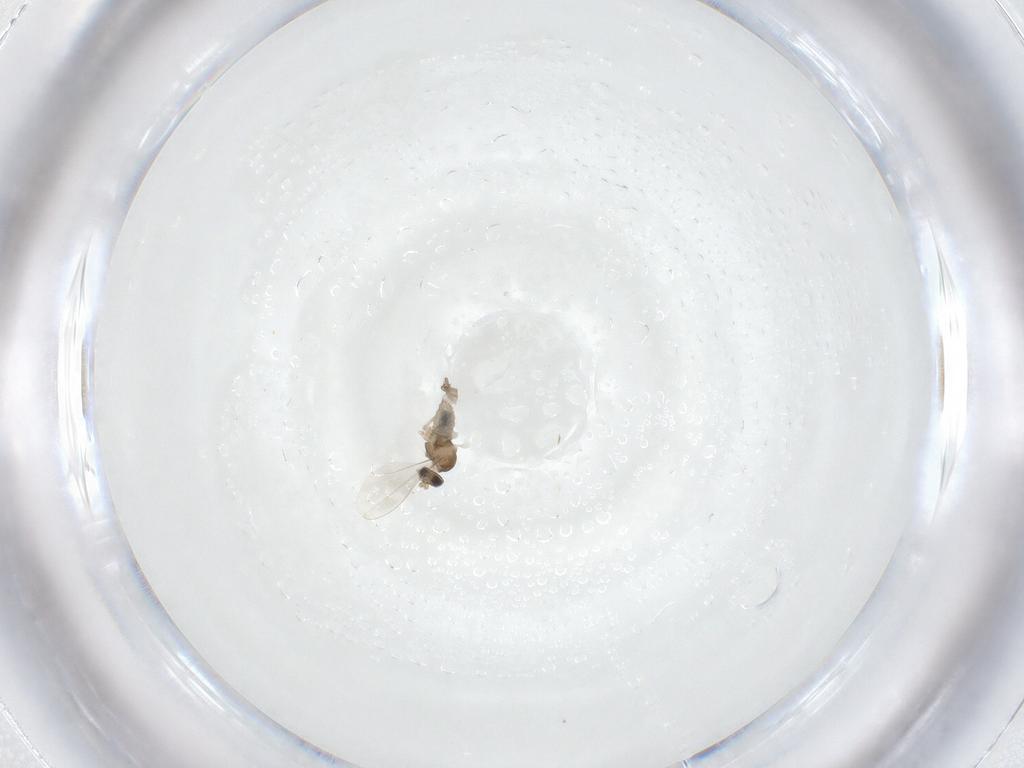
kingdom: Animalia
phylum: Arthropoda
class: Insecta
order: Diptera
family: Cecidomyiidae
